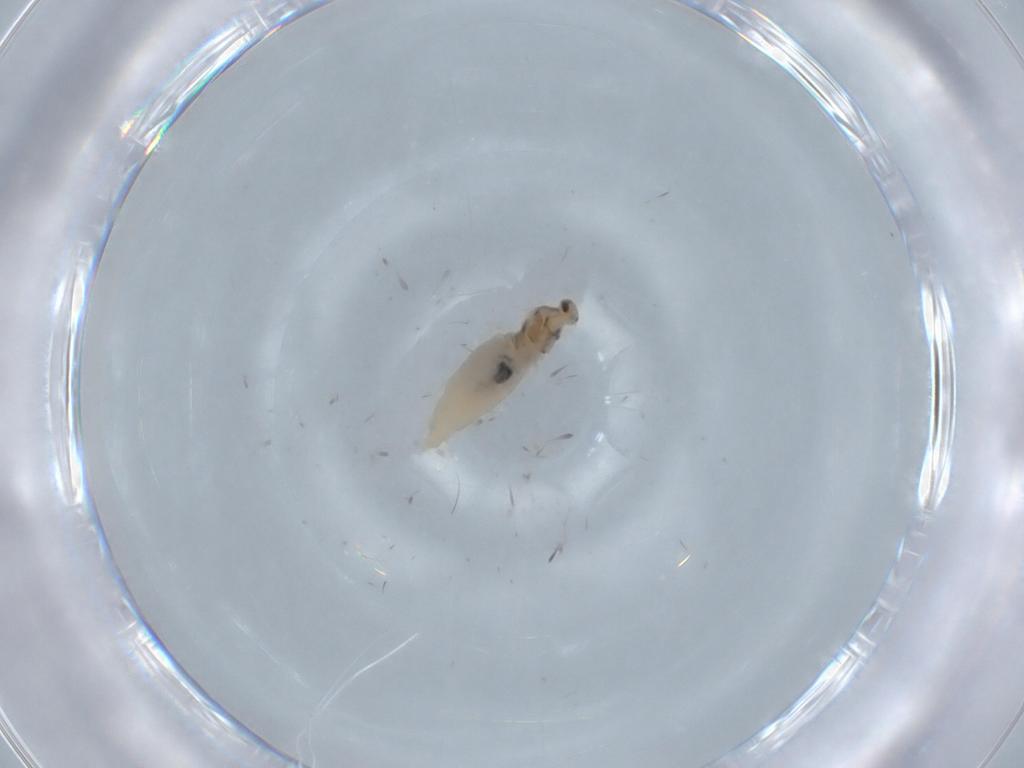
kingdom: Animalia
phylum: Arthropoda
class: Insecta
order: Diptera
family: Cecidomyiidae
